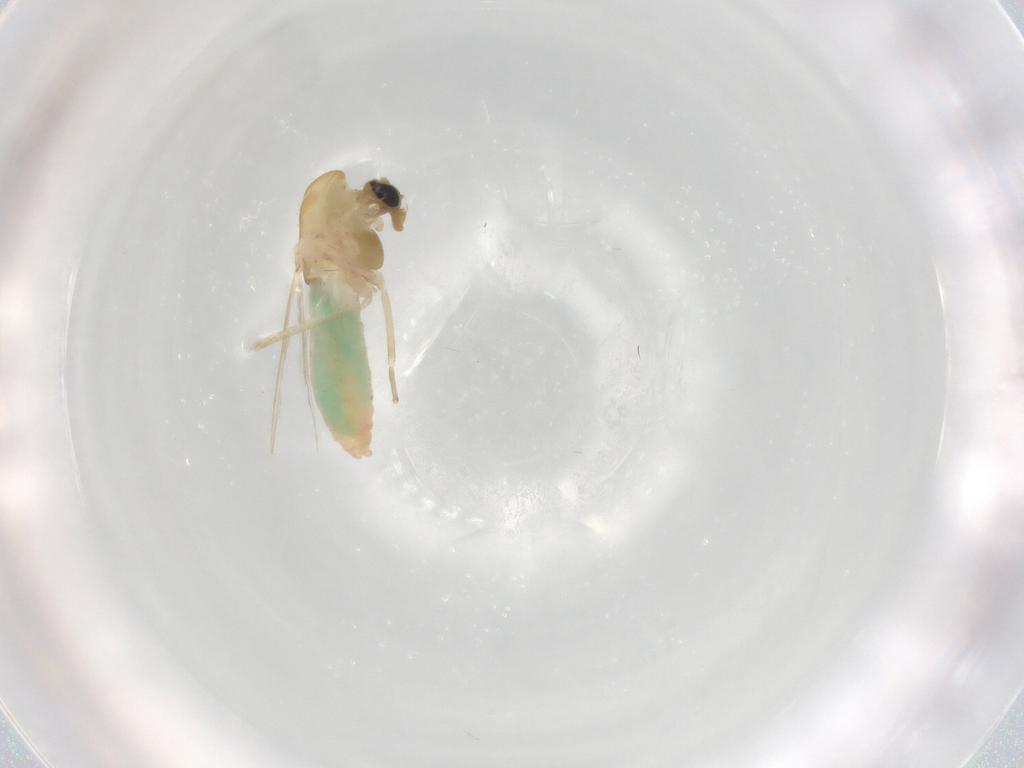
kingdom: Animalia
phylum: Arthropoda
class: Insecta
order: Diptera
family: Chironomidae
